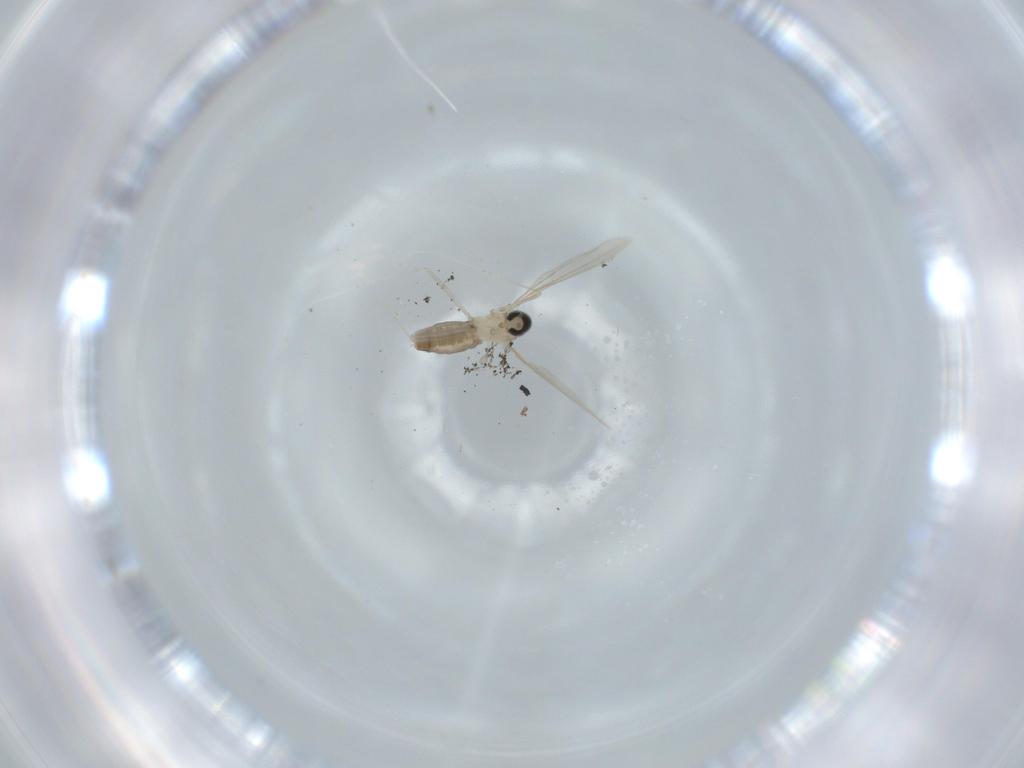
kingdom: Animalia
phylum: Arthropoda
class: Insecta
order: Diptera
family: Cecidomyiidae
